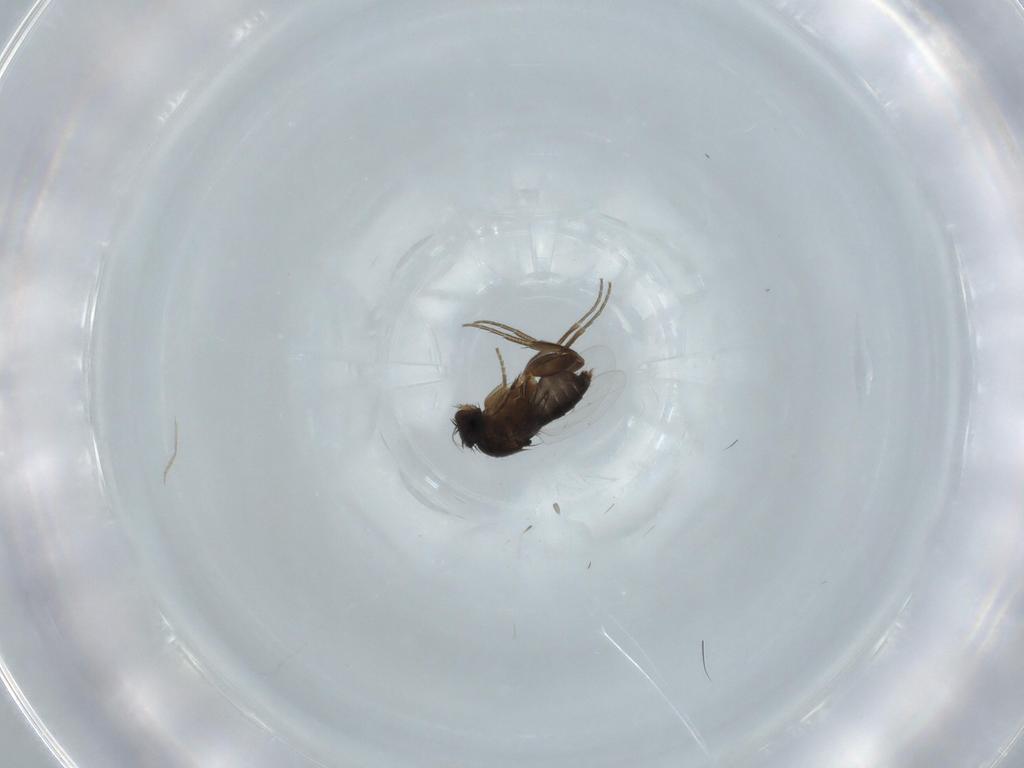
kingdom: Animalia
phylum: Arthropoda
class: Insecta
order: Diptera
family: Phoridae
